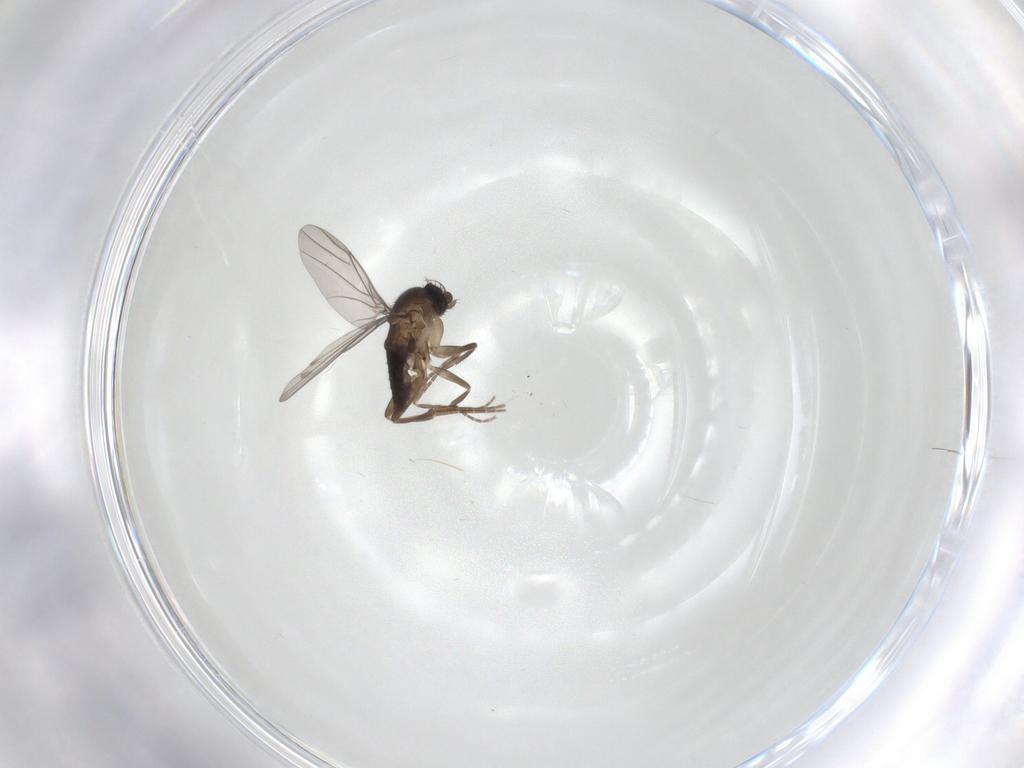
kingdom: Animalia
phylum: Arthropoda
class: Insecta
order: Diptera
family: Phoridae
